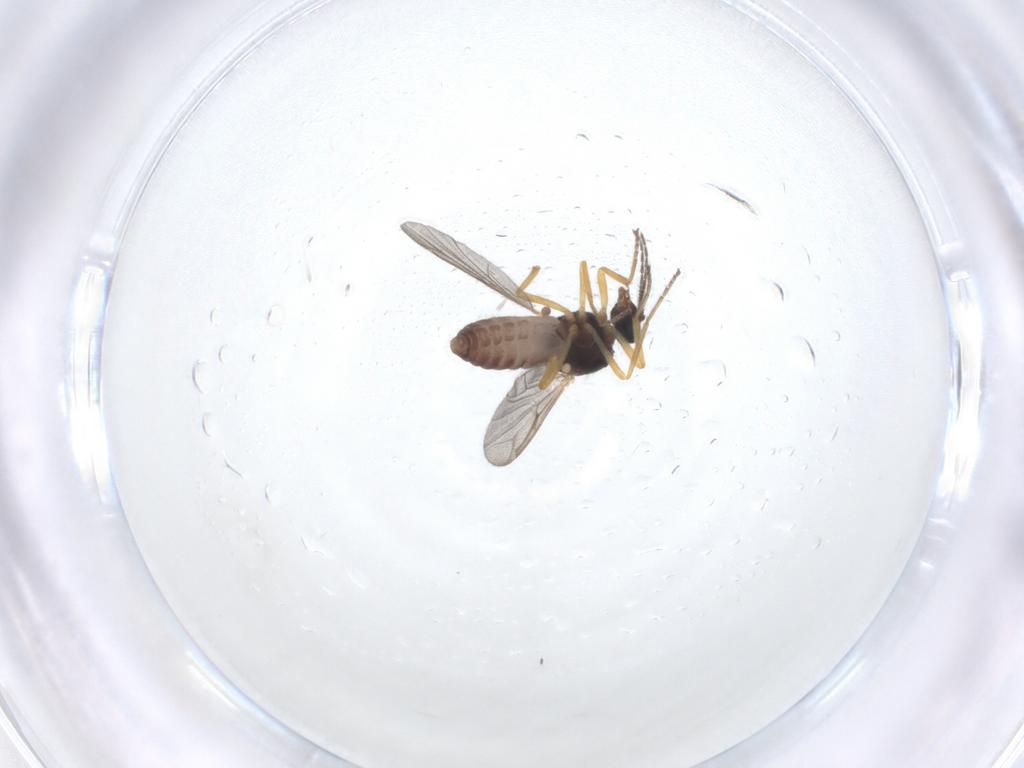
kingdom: Animalia
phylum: Arthropoda
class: Insecta
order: Diptera
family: Ceratopogonidae
